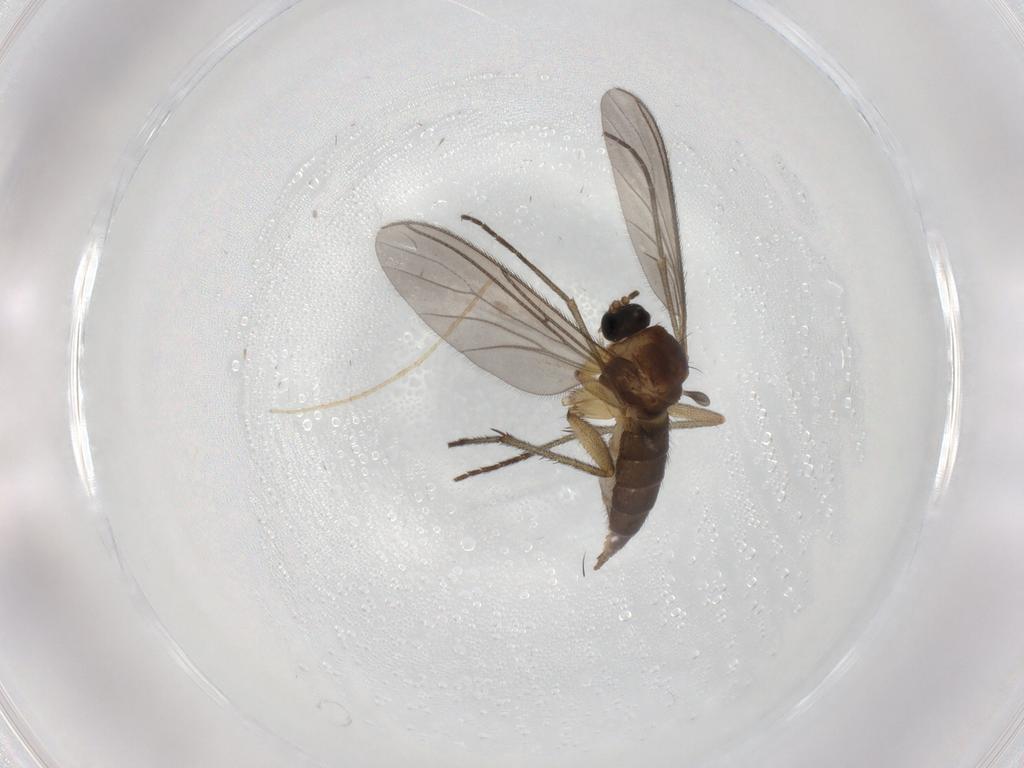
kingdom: Animalia
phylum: Arthropoda
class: Insecta
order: Diptera
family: Sciaridae
